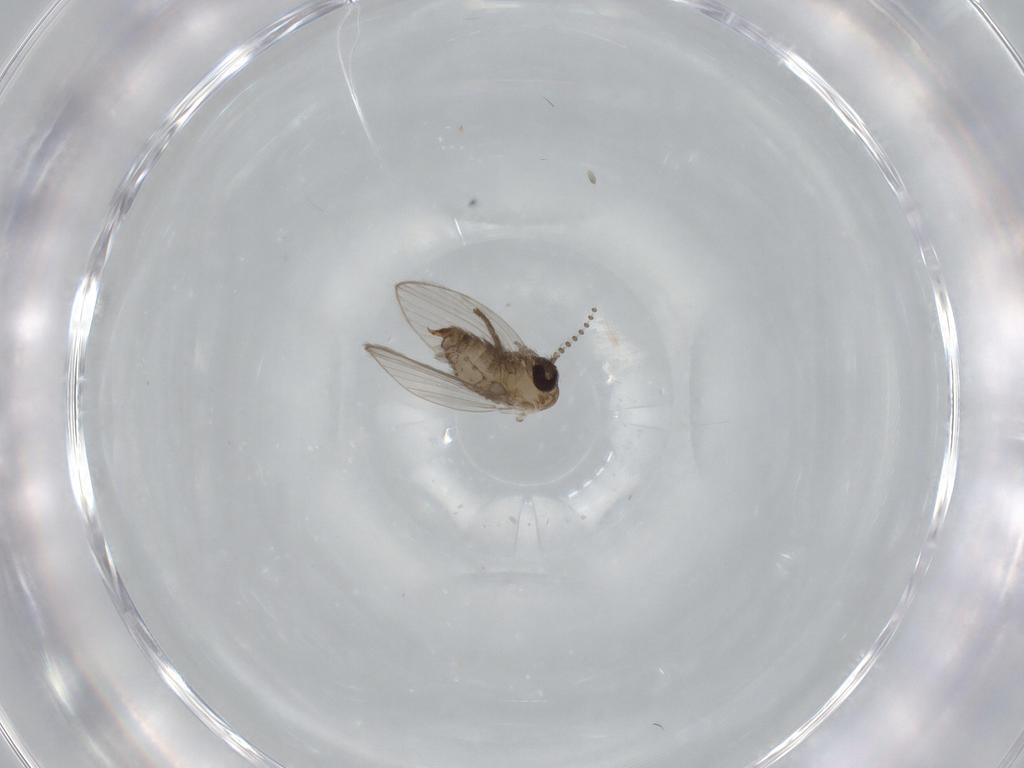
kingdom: Animalia
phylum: Arthropoda
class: Insecta
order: Diptera
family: Psychodidae
